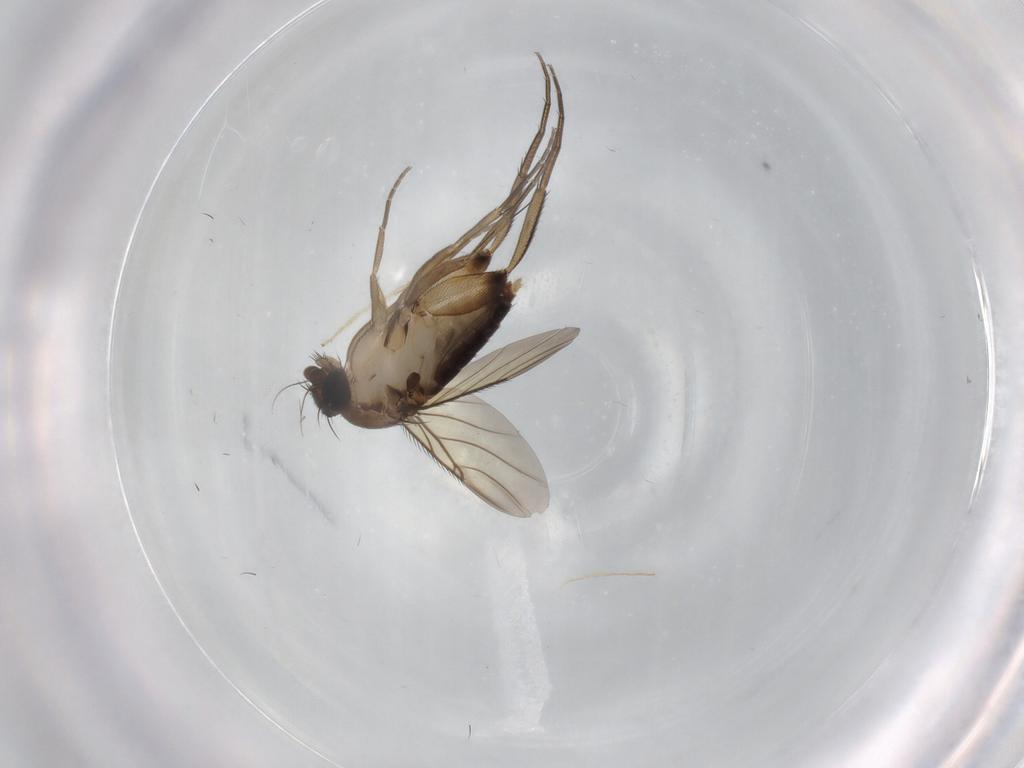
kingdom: Animalia
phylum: Arthropoda
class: Insecta
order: Diptera
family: Phoridae
